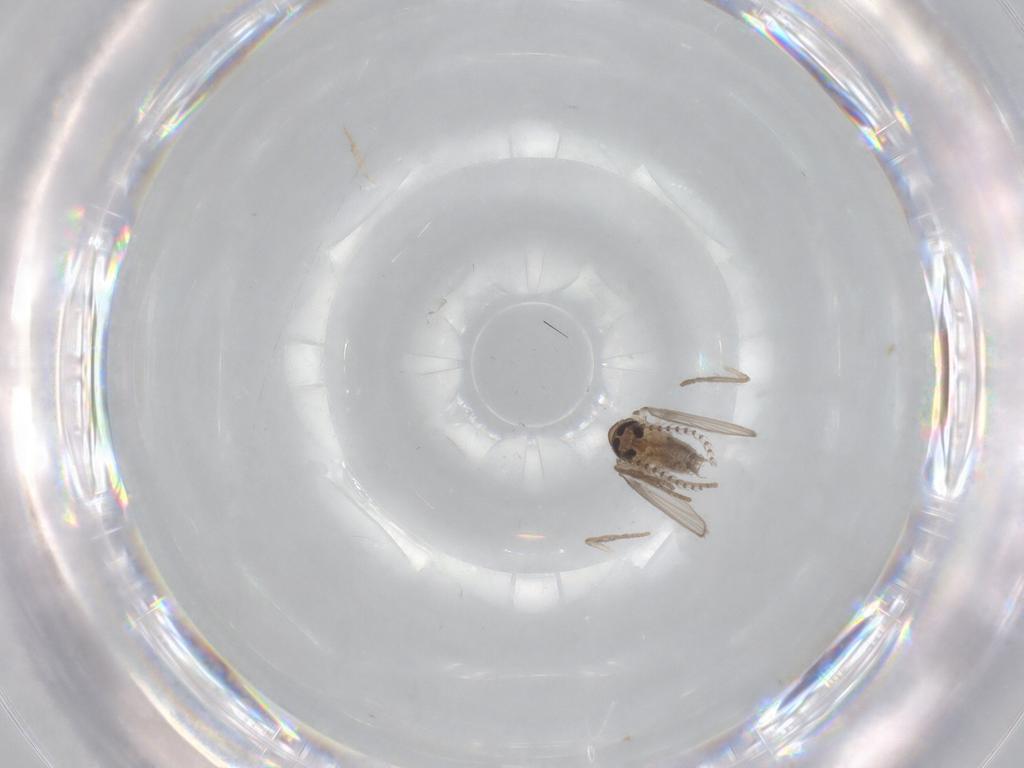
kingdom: Animalia
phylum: Arthropoda
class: Insecta
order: Diptera
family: Psychodidae
